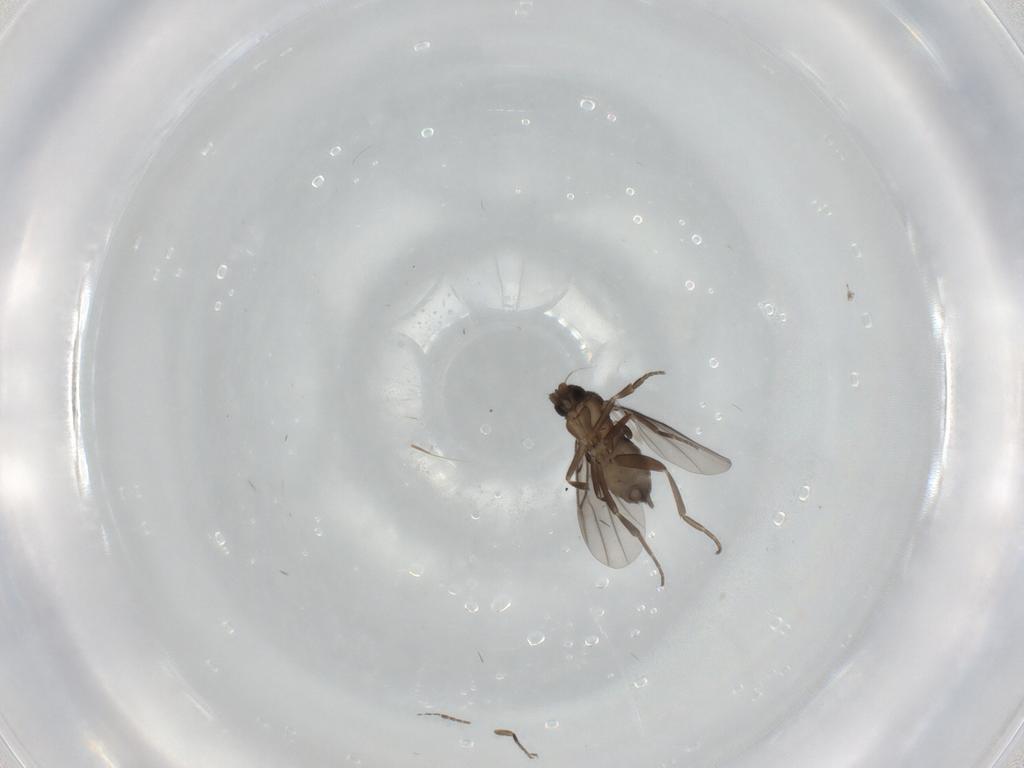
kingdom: Animalia
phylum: Arthropoda
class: Insecta
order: Diptera
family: Phoridae
